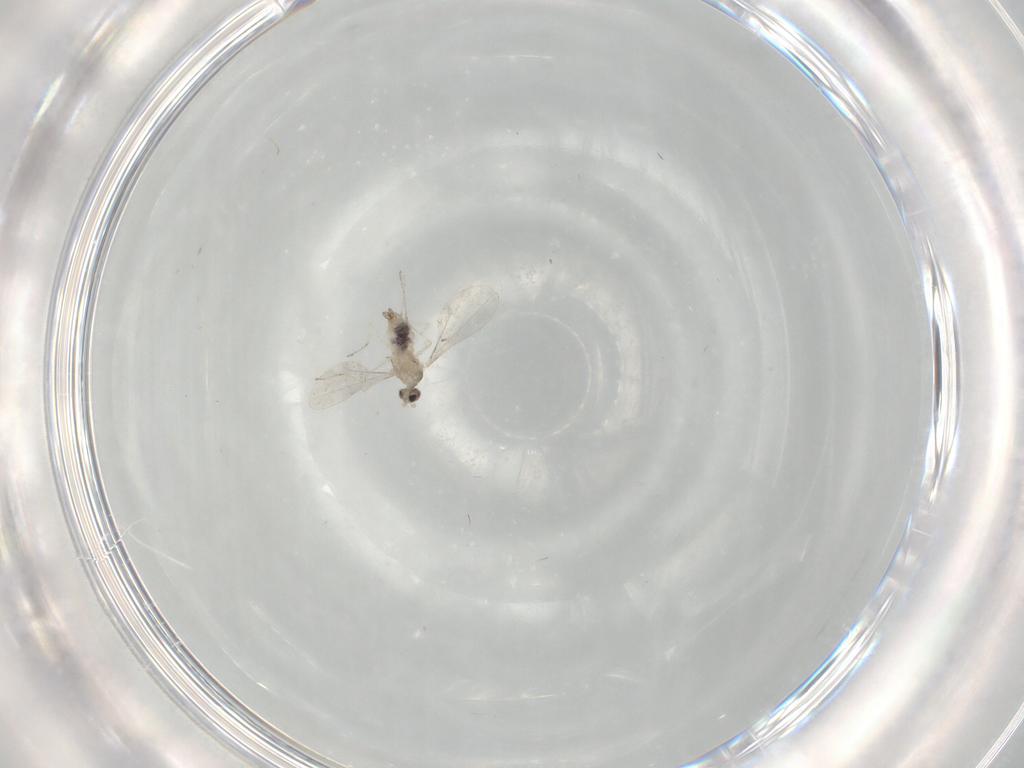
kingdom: Animalia
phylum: Arthropoda
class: Insecta
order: Diptera
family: Cecidomyiidae
